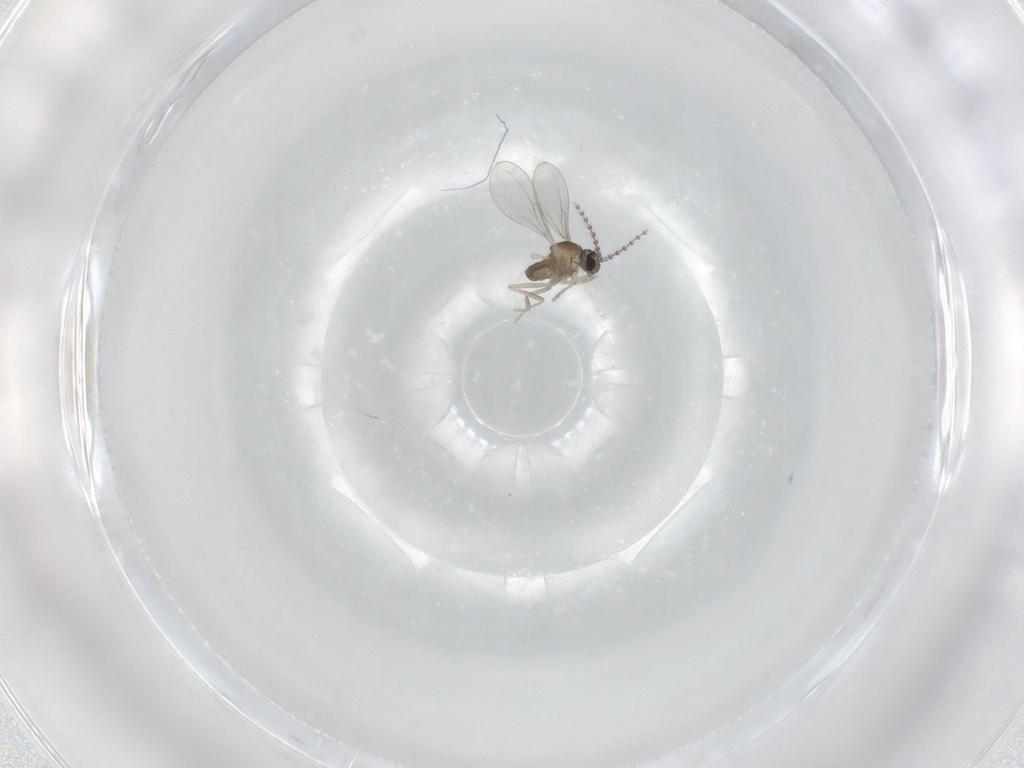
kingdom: Animalia
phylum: Arthropoda
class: Insecta
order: Diptera
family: Cecidomyiidae
